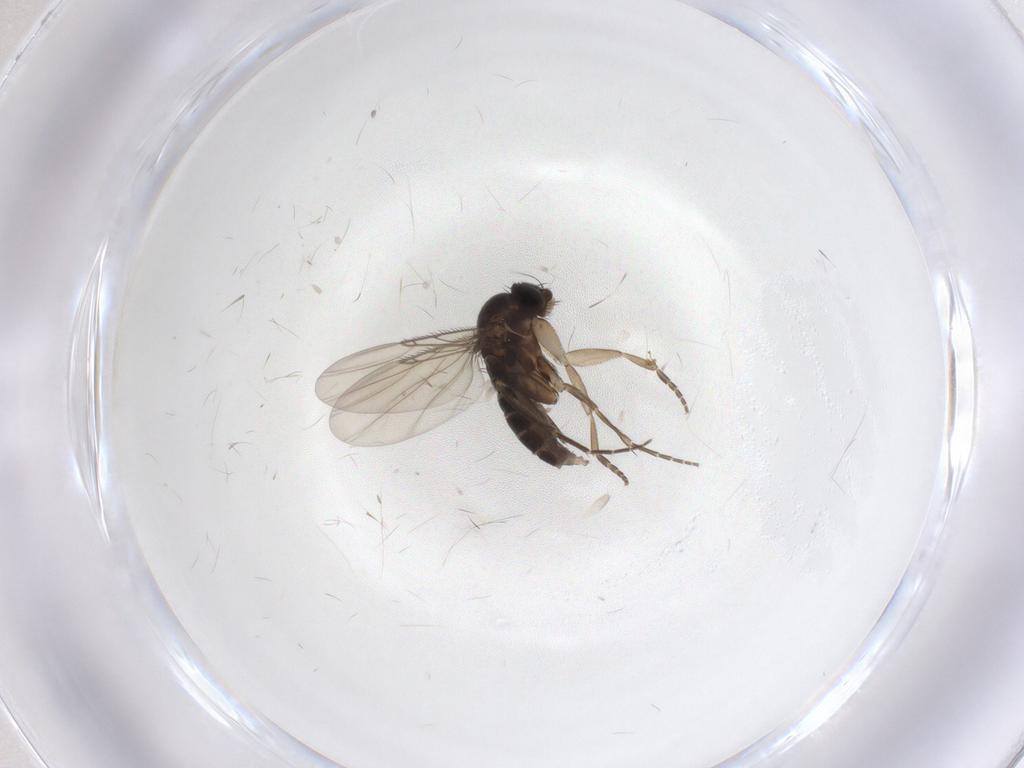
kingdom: Animalia
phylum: Arthropoda
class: Insecta
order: Diptera
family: Phoridae
